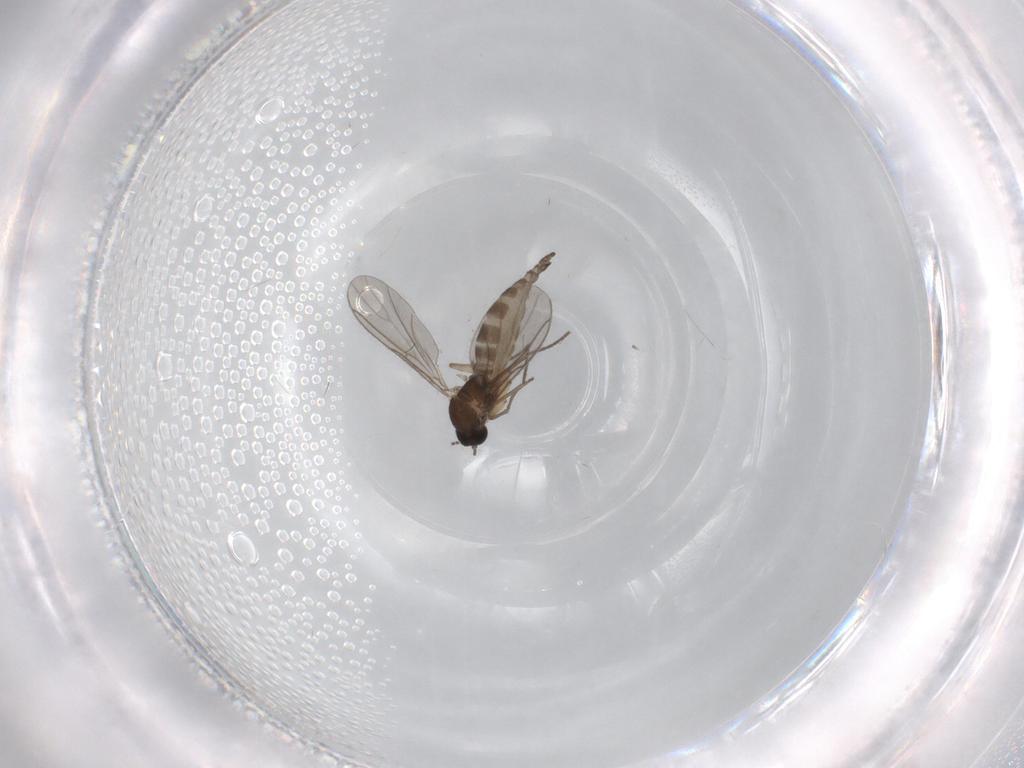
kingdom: Animalia
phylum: Arthropoda
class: Insecta
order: Diptera
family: Sciaridae
